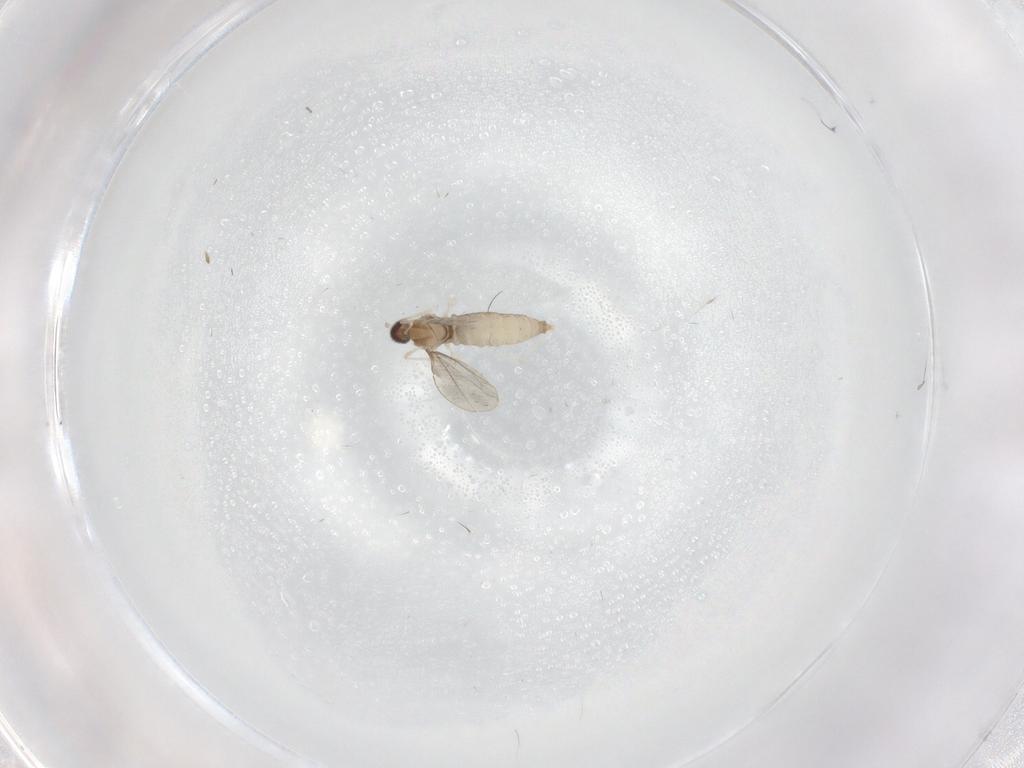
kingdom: Animalia
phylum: Arthropoda
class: Insecta
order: Diptera
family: Cecidomyiidae
